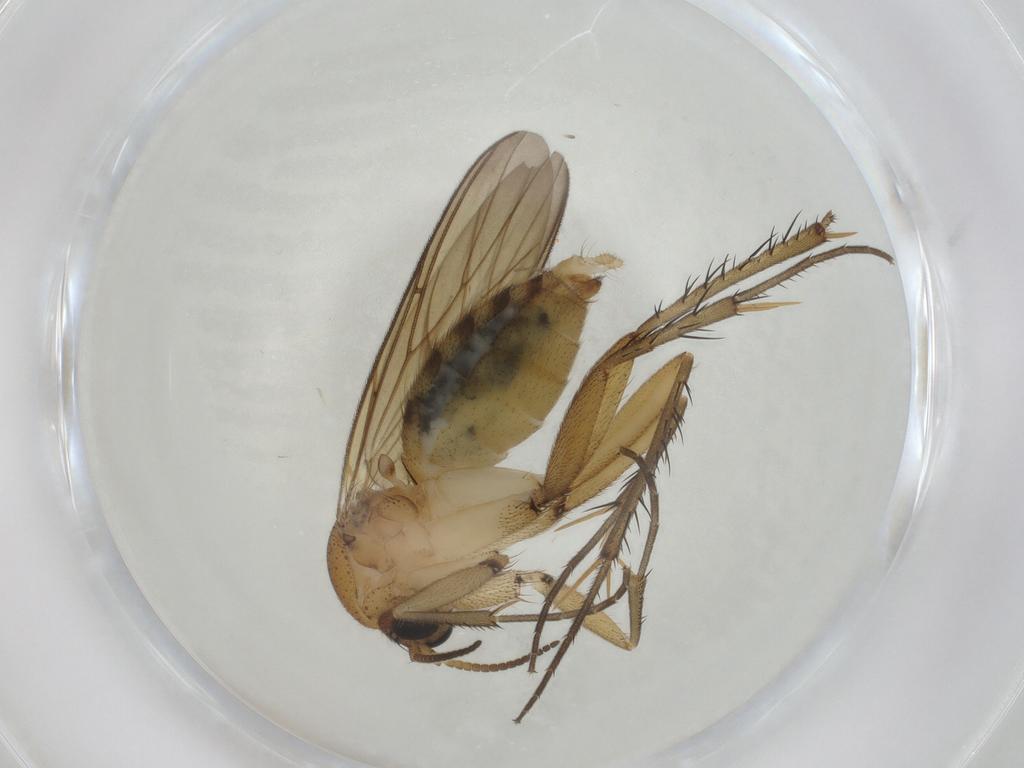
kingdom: Animalia
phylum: Arthropoda
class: Insecta
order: Diptera
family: Mycetophilidae
